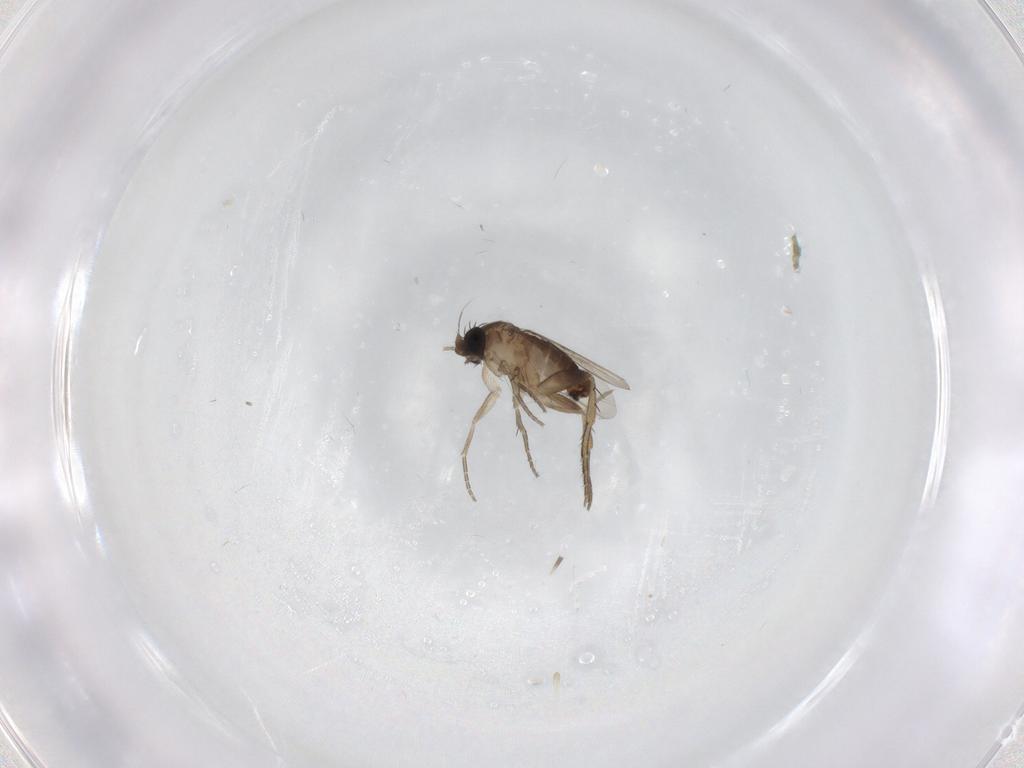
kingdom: Animalia
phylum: Arthropoda
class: Insecta
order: Diptera
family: Phoridae
